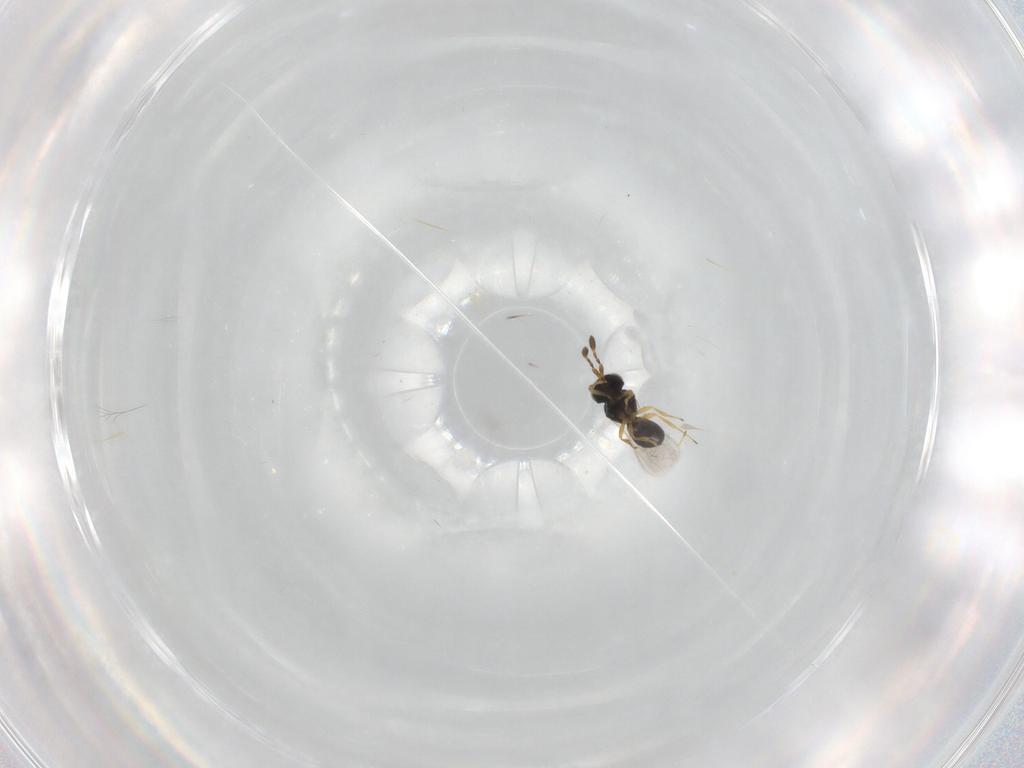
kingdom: Animalia
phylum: Arthropoda
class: Insecta
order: Hymenoptera
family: Scelionidae
